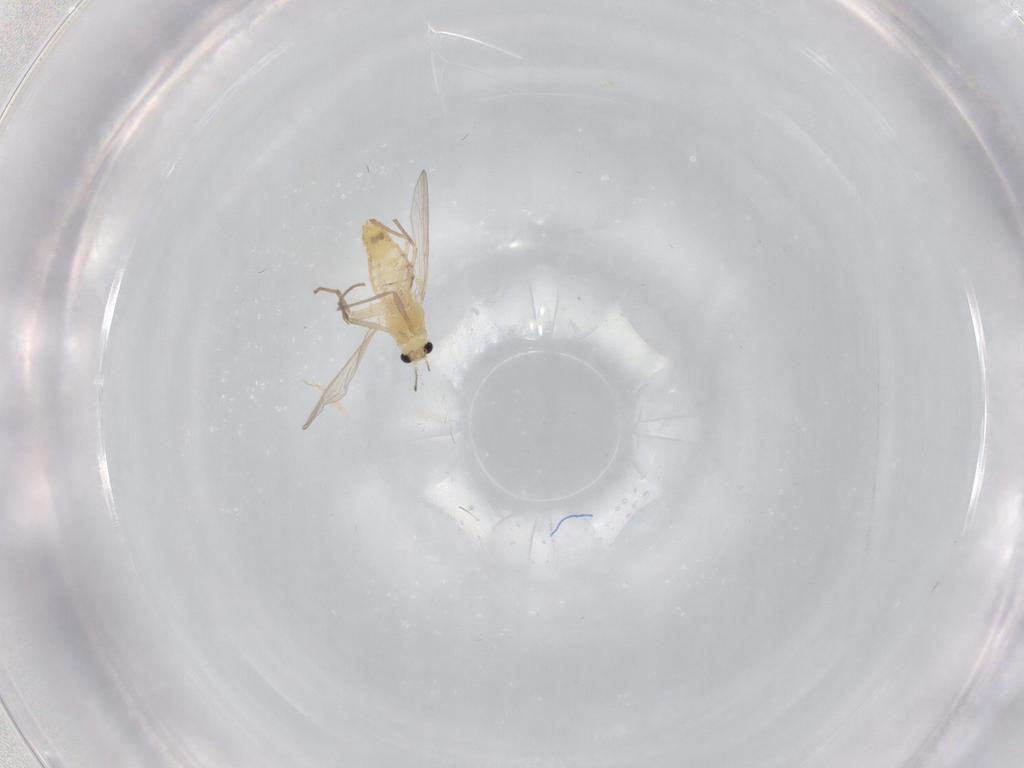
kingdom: Animalia
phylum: Arthropoda
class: Insecta
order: Diptera
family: Chironomidae
